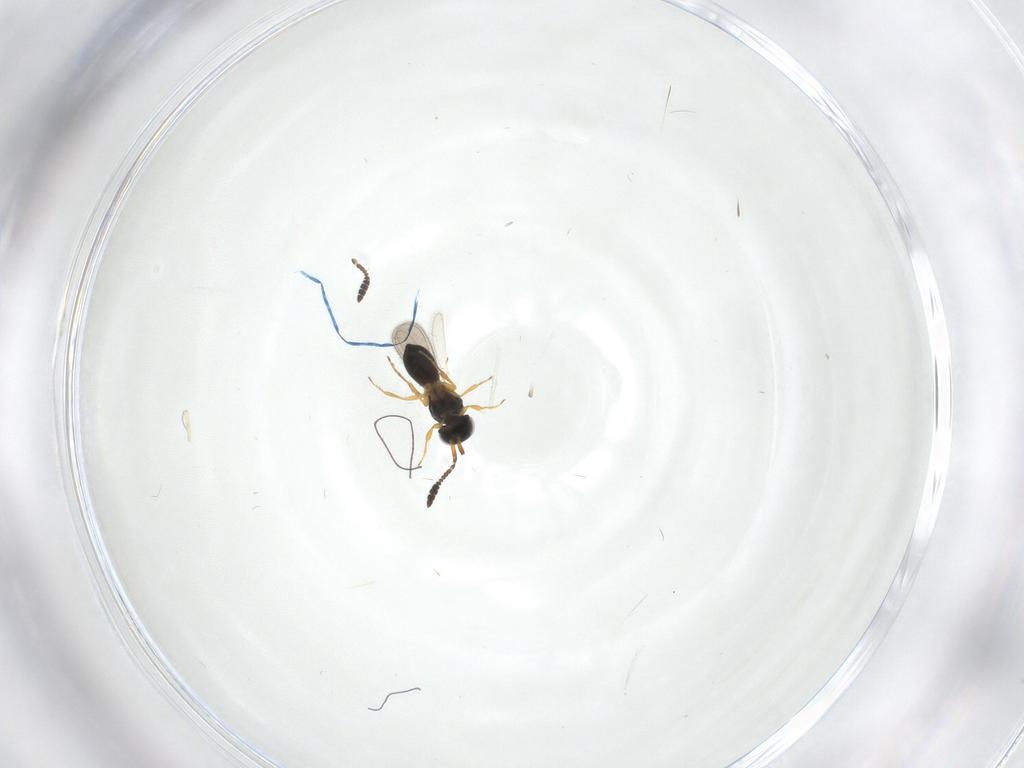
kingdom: Animalia
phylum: Arthropoda
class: Insecta
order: Hymenoptera
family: Scelionidae
